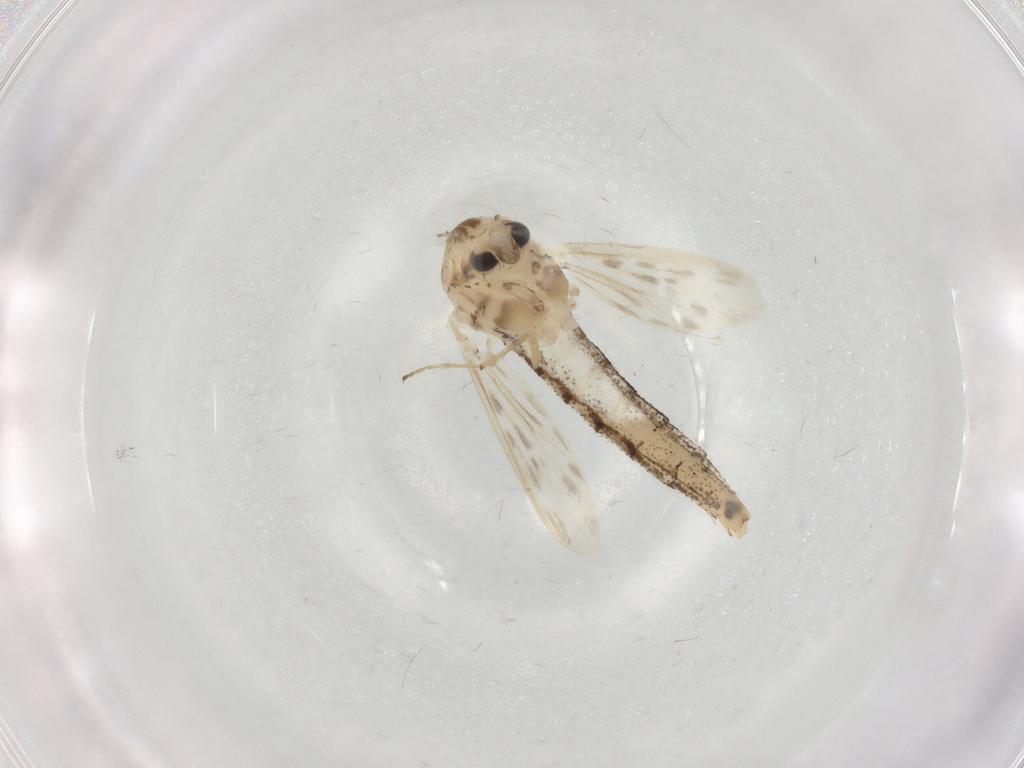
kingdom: Animalia
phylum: Arthropoda
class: Insecta
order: Diptera
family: Chaoboridae
